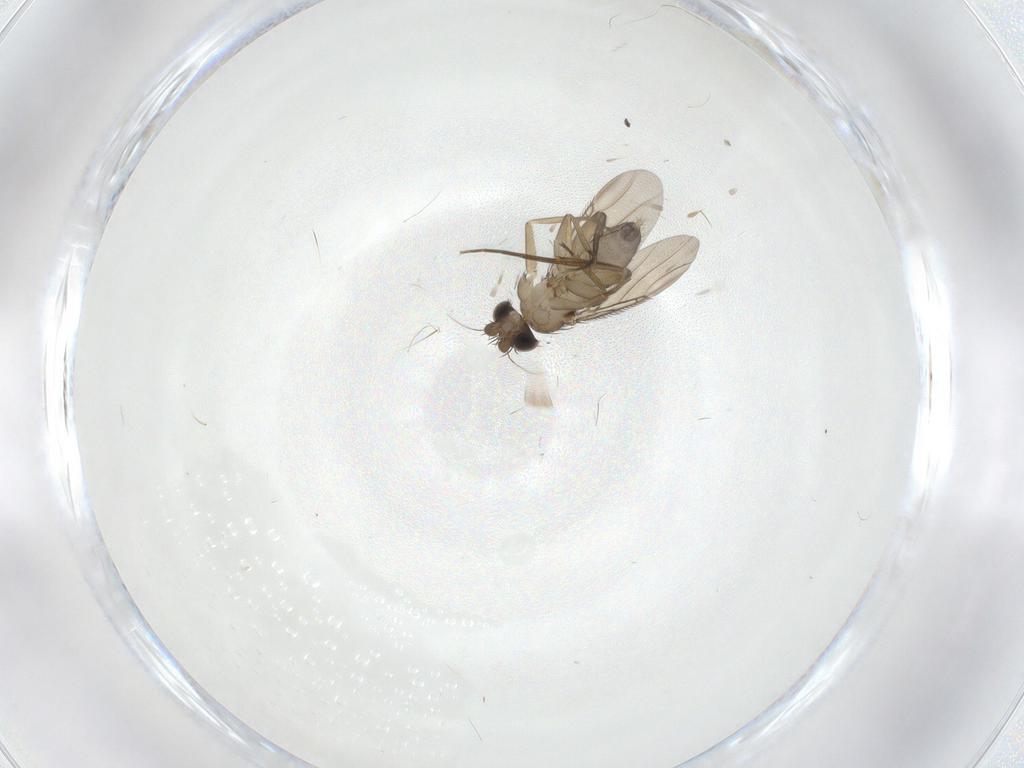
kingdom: Animalia
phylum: Arthropoda
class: Insecta
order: Diptera
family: Phoridae
